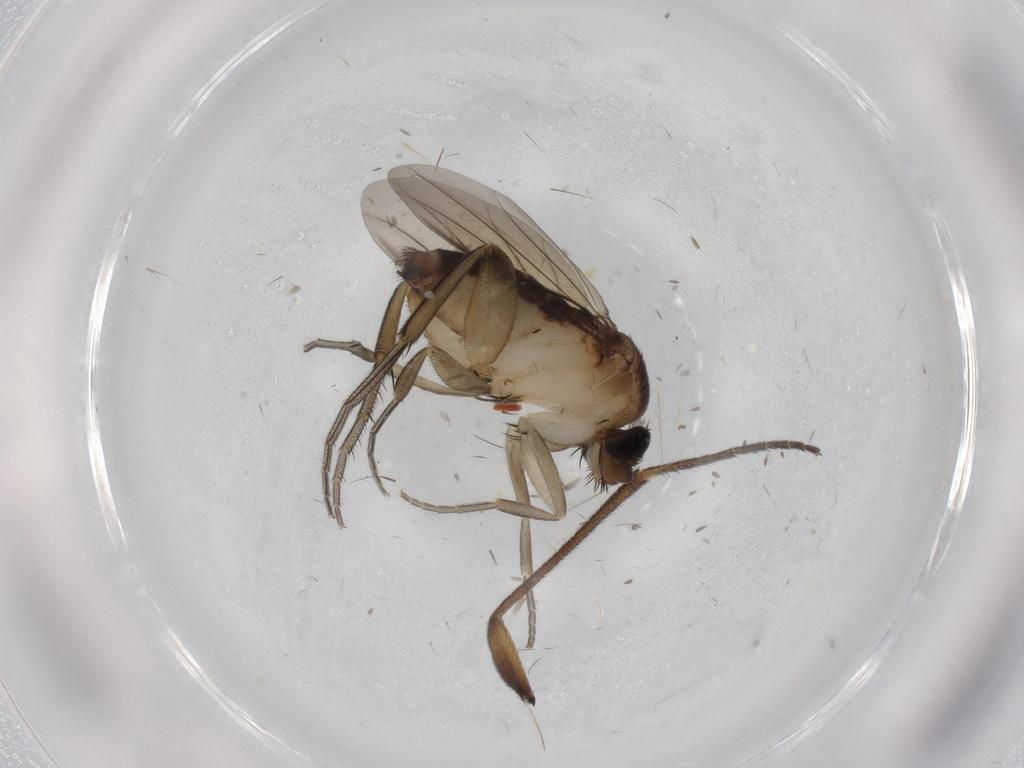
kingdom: Animalia
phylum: Arthropoda
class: Insecta
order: Diptera
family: Phoridae
